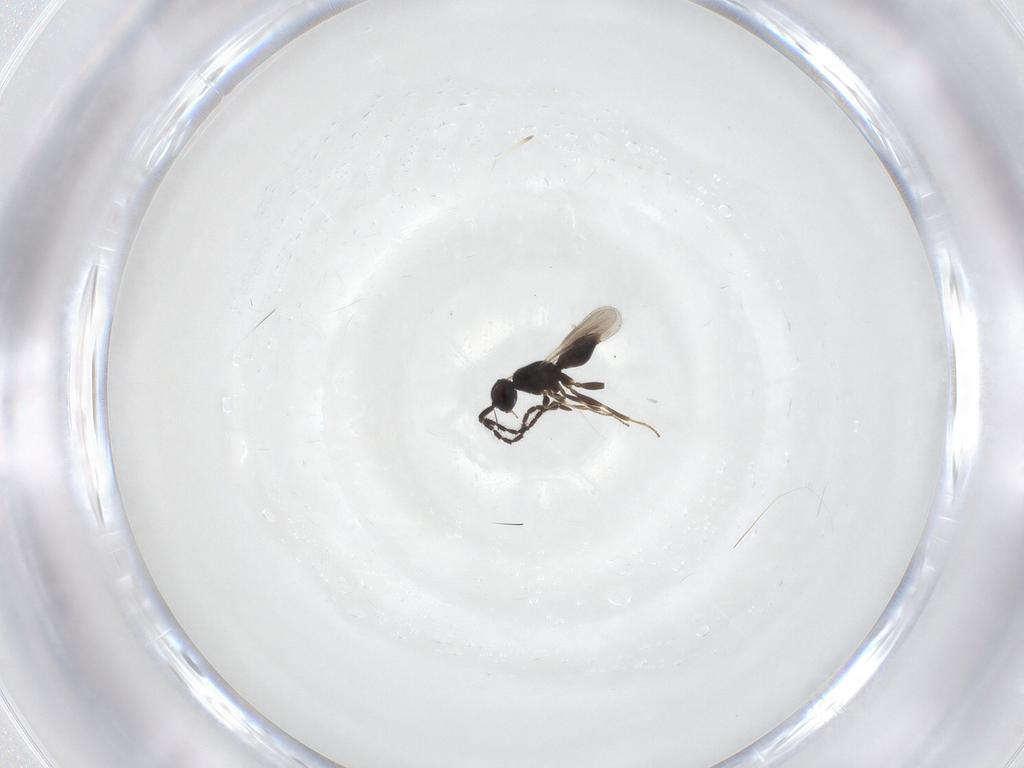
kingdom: Animalia
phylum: Arthropoda
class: Insecta
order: Hymenoptera
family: Megaspilidae
